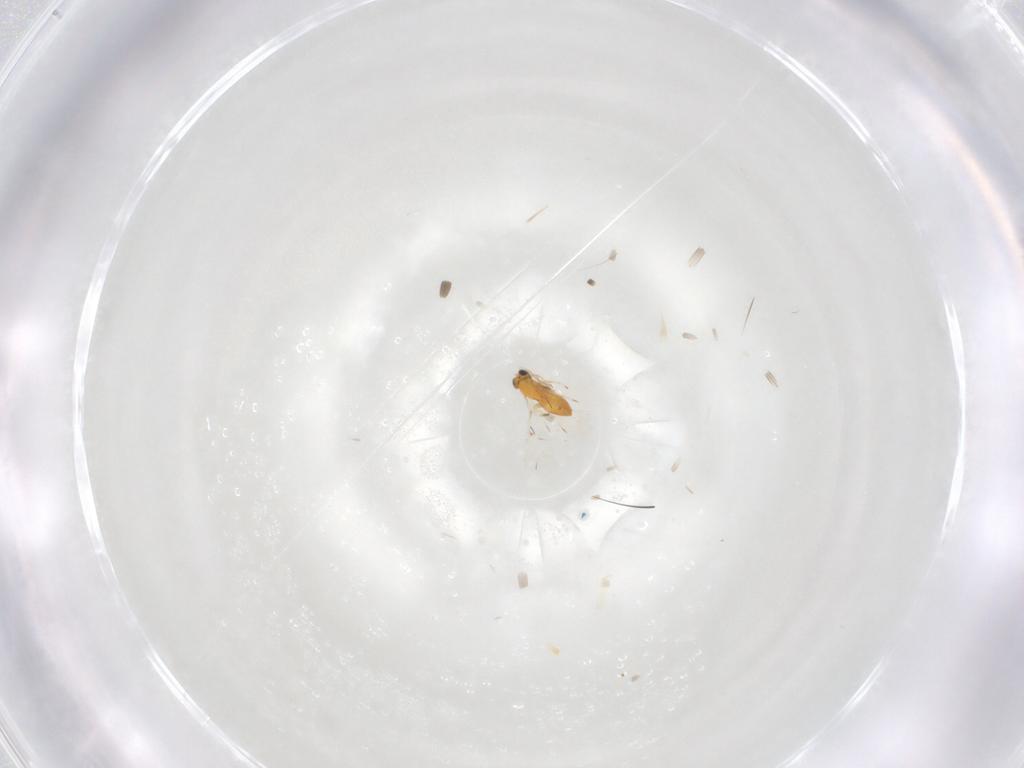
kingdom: Animalia
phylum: Arthropoda
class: Insecta
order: Hymenoptera
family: Trichogrammatidae
